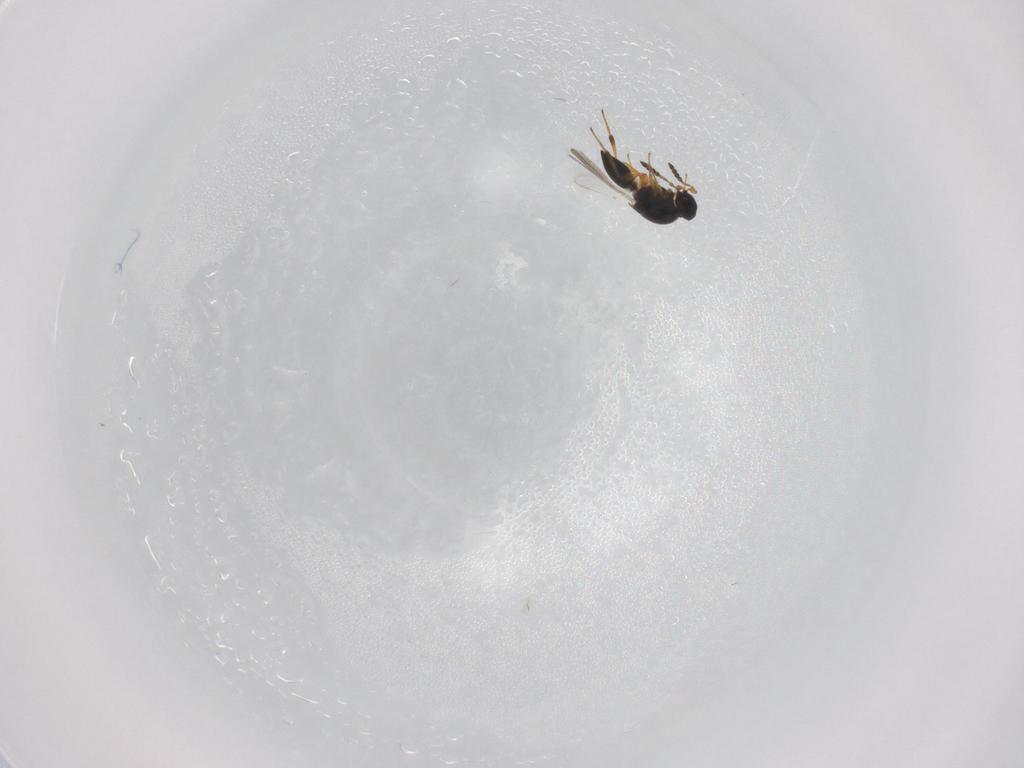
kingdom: Animalia
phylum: Arthropoda
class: Insecta
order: Hymenoptera
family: Platygastridae
